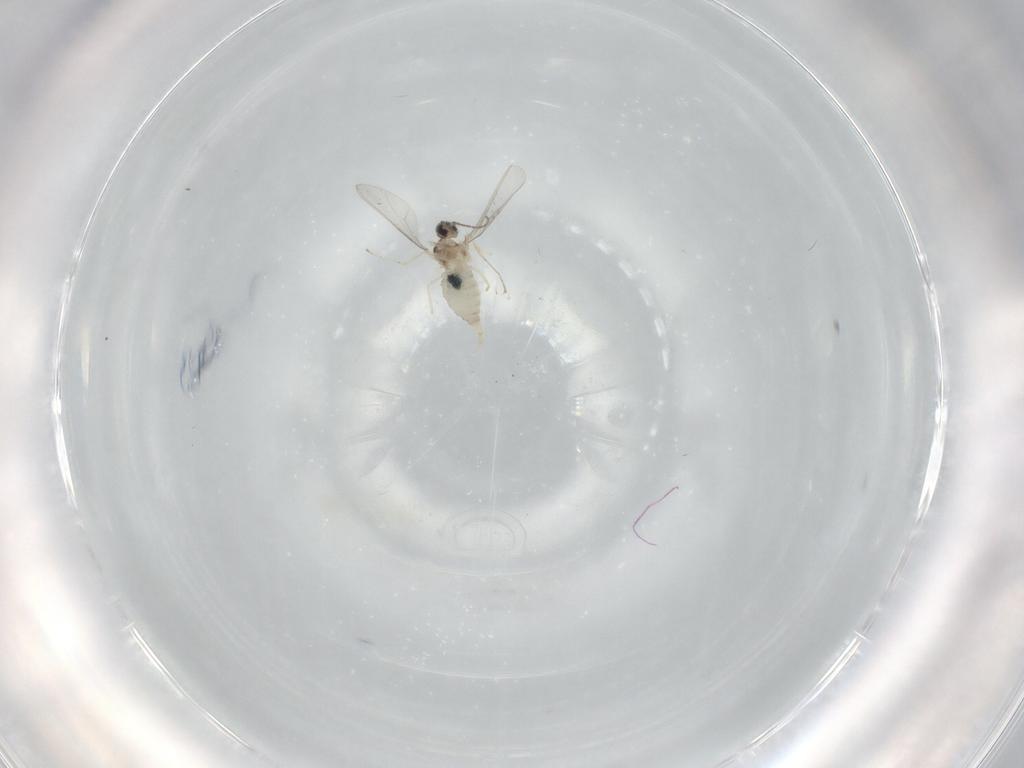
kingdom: Animalia
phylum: Arthropoda
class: Insecta
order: Diptera
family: Cecidomyiidae
